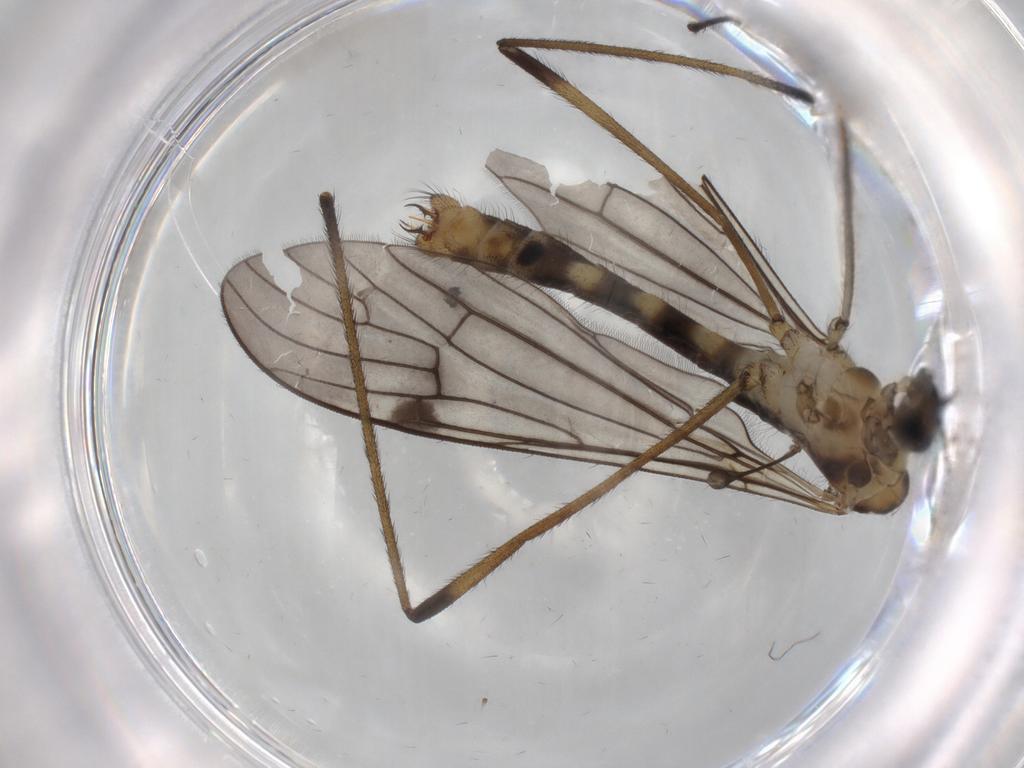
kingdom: Animalia
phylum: Arthropoda
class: Insecta
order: Diptera
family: Limoniidae
